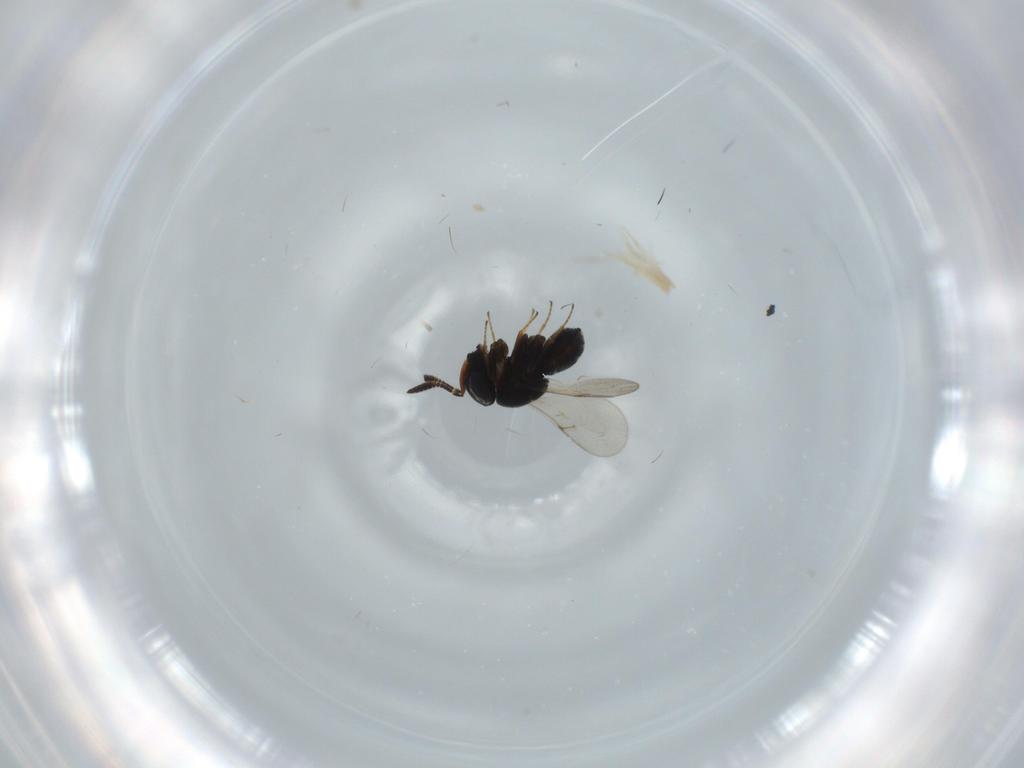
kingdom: Animalia
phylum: Arthropoda
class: Insecta
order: Hymenoptera
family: Scelionidae
